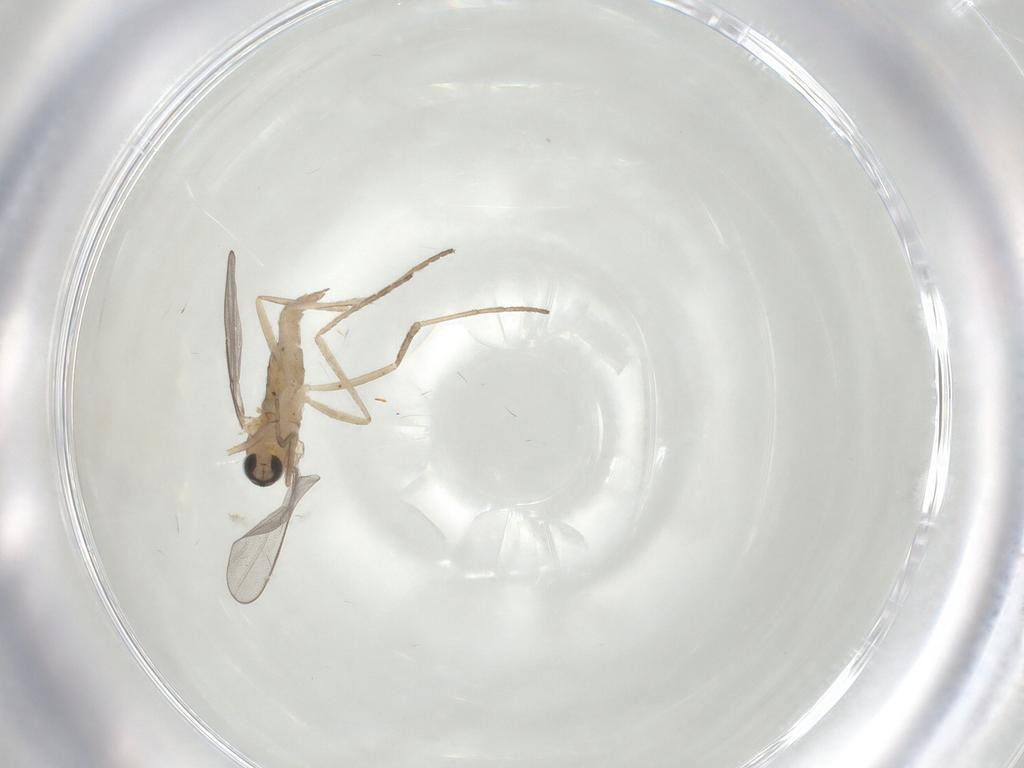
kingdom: Animalia
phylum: Arthropoda
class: Insecta
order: Diptera
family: Cecidomyiidae
